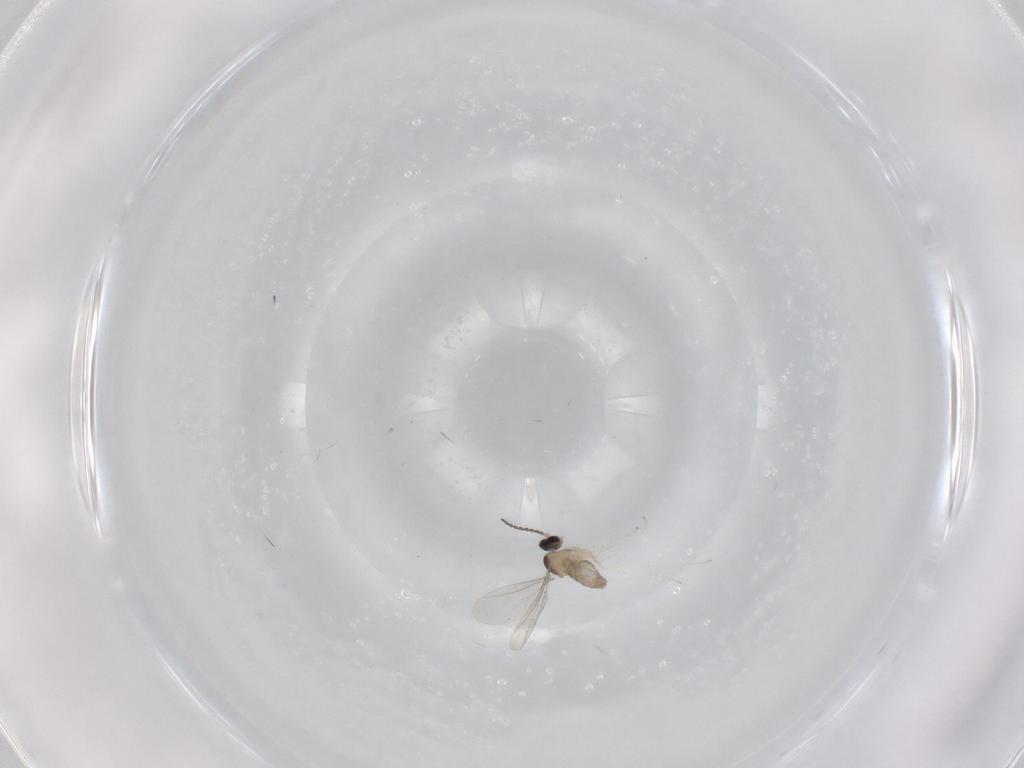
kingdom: Animalia
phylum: Arthropoda
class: Insecta
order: Diptera
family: Cecidomyiidae
